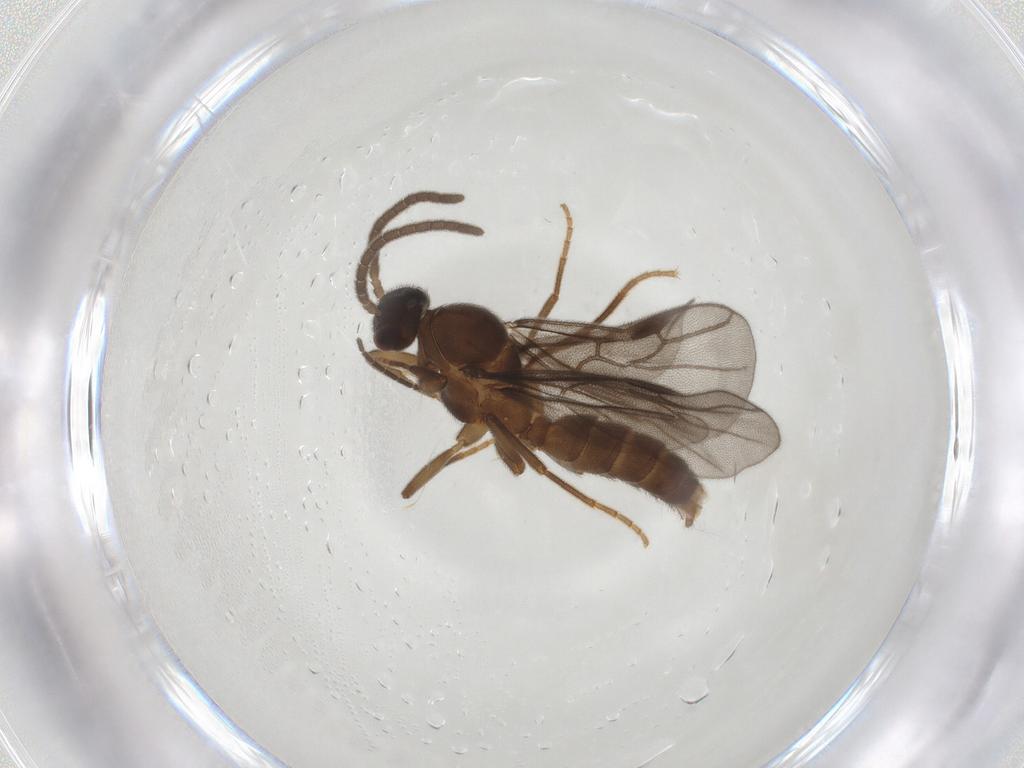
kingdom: Animalia
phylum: Arthropoda
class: Insecta
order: Hymenoptera
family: Formicidae
